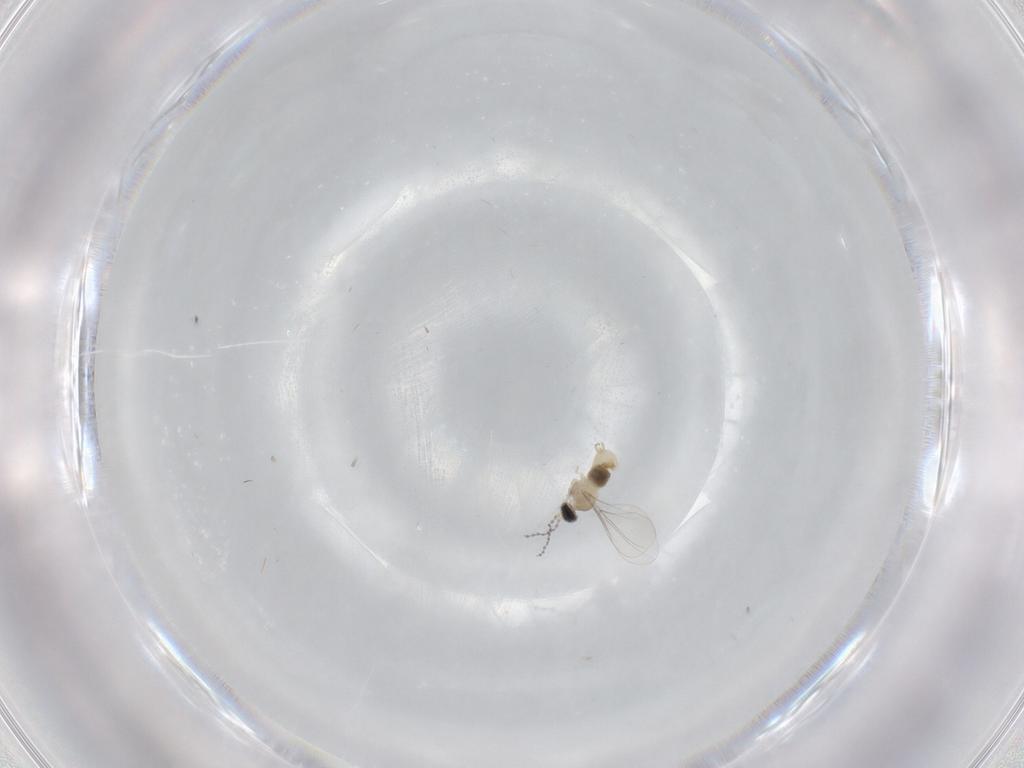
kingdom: Animalia
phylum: Arthropoda
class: Insecta
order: Diptera
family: Cecidomyiidae
